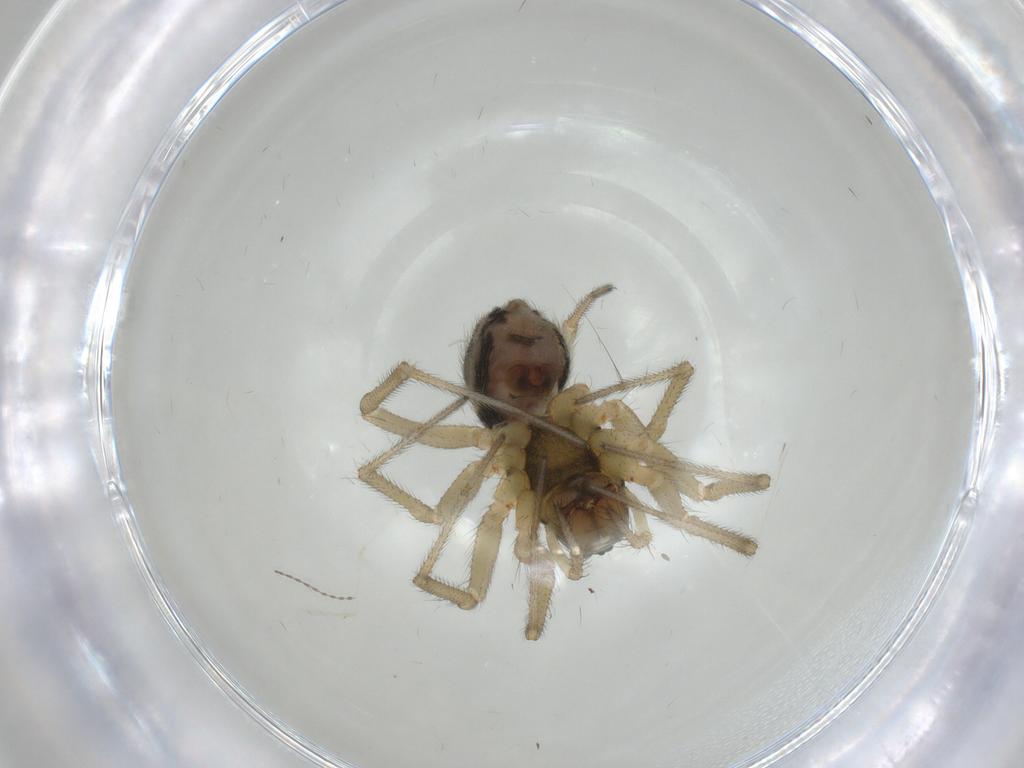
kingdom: Animalia
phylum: Arthropoda
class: Arachnida
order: Araneae
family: Linyphiidae
